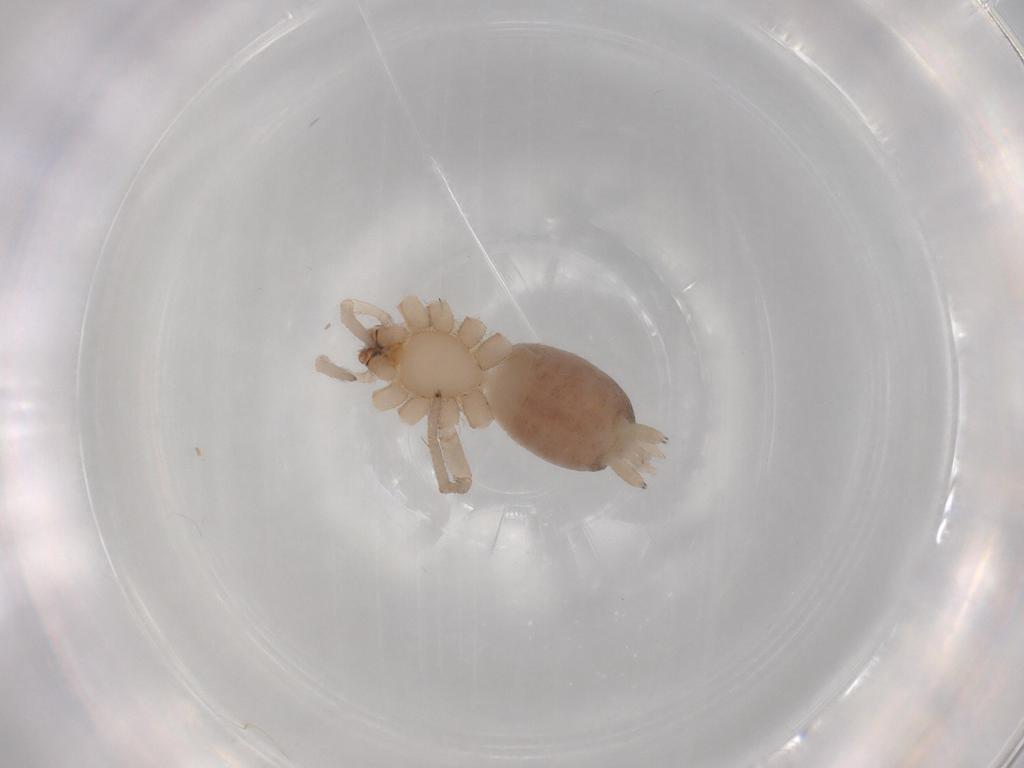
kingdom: Animalia
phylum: Arthropoda
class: Arachnida
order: Araneae
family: Gnaphosidae
